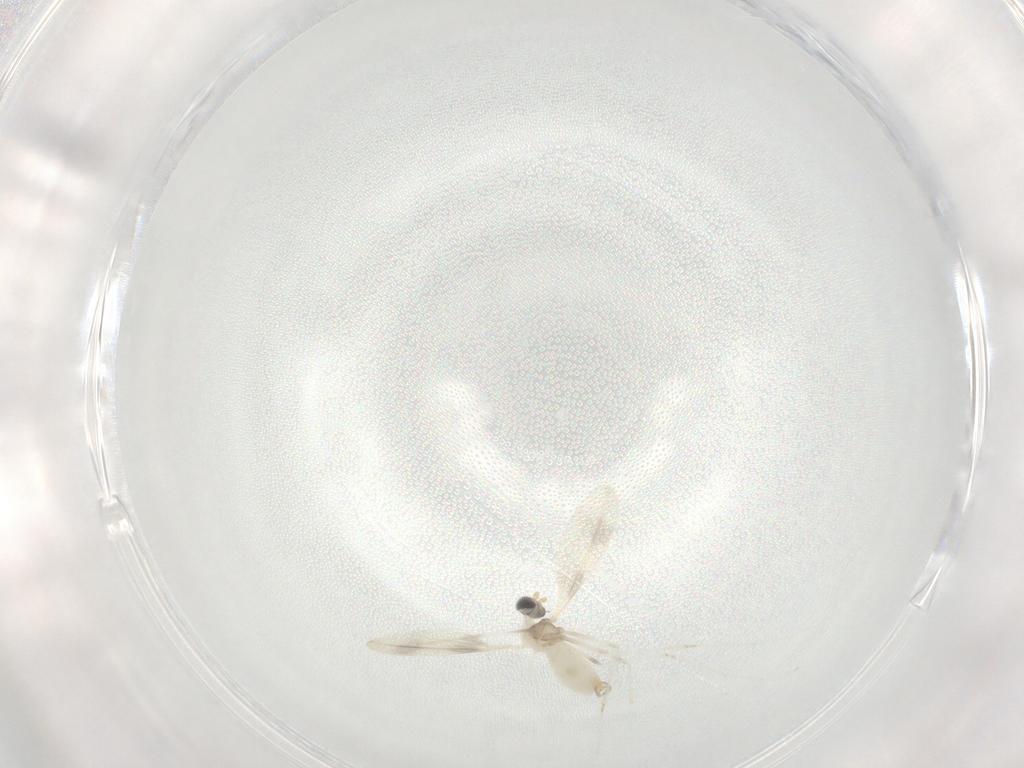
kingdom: Animalia
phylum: Arthropoda
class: Insecta
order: Diptera
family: Cecidomyiidae
